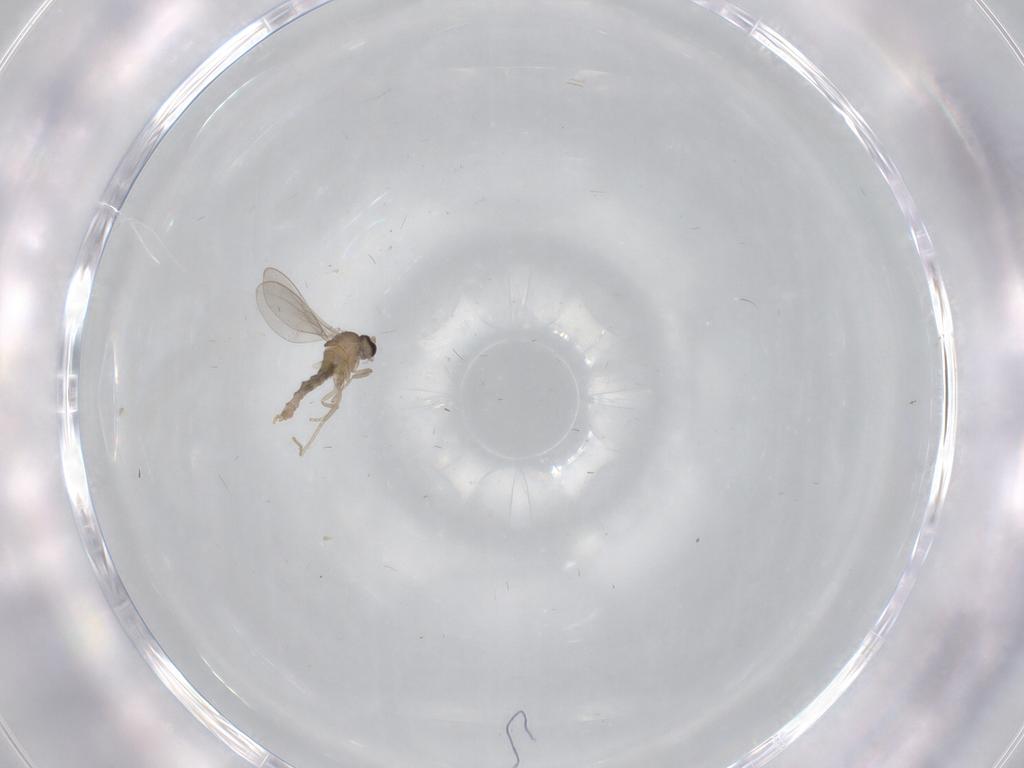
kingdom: Animalia
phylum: Arthropoda
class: Insecta
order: Diptera
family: Cecidomyiidae
